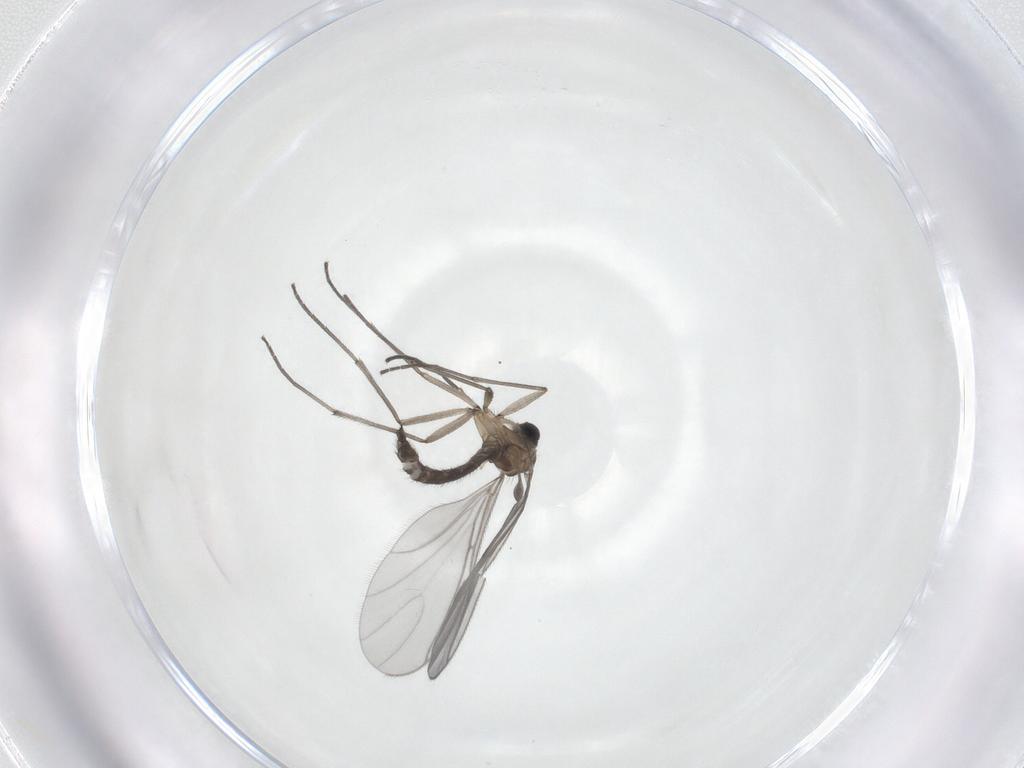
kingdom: Animalia
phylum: Arthropoda
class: Insecta
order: Diptera
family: Sciaridae
